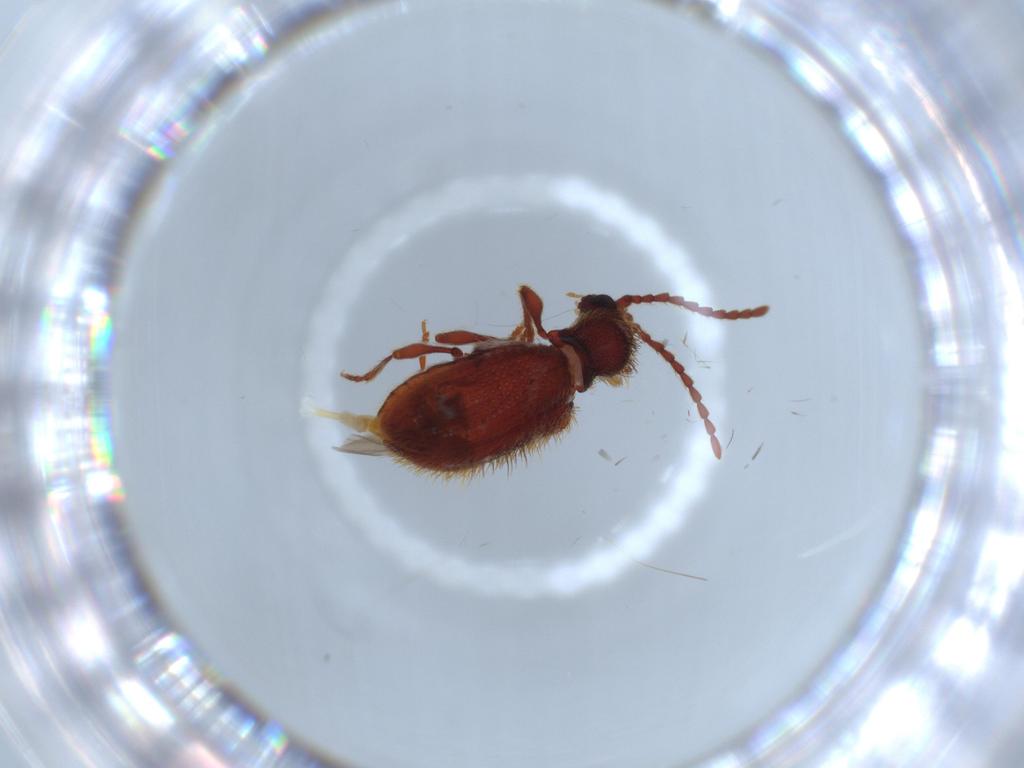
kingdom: Animalia
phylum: Arthropoda
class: Insecta
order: Coleoptera
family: Ptinidae
